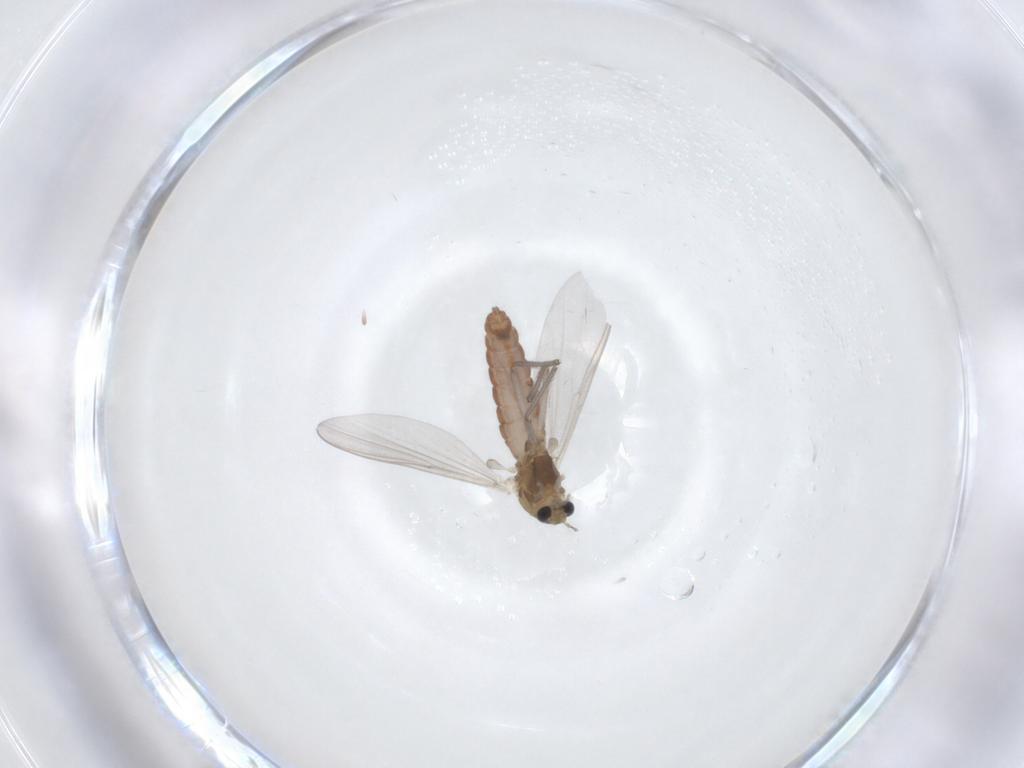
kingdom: Animalia
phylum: Arthropoda
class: Insecta
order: Diptera
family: Chironomidae
